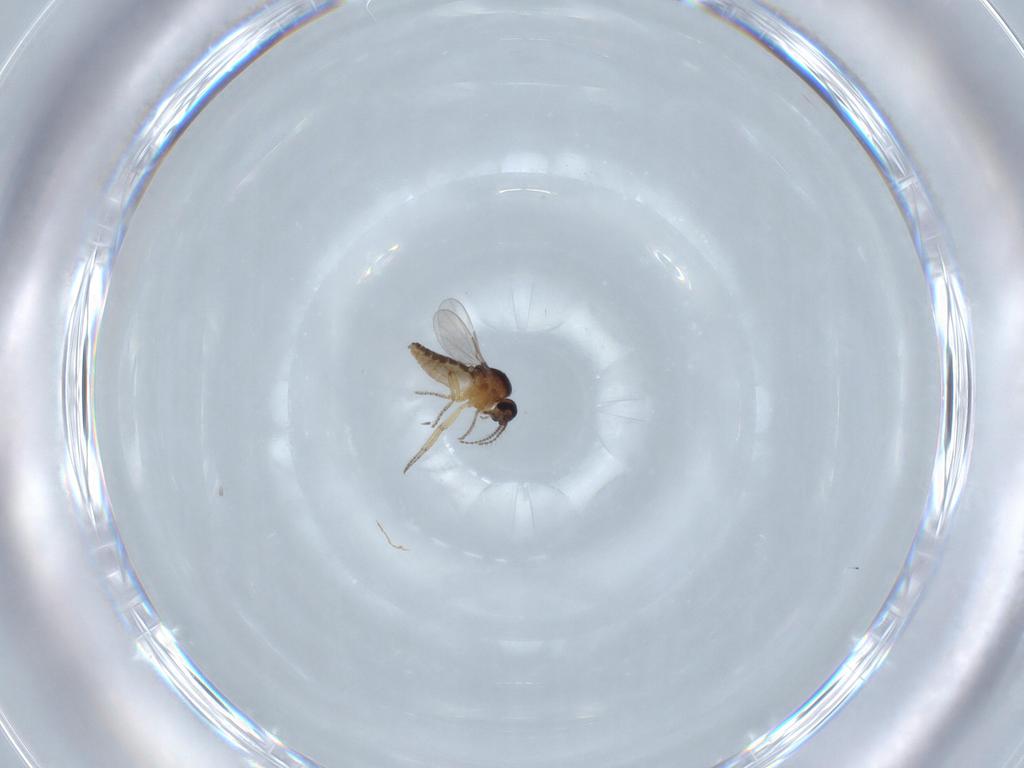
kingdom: Animalia
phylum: Arthropoda
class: Insecta
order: Diptera
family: Ceratopogonidae
